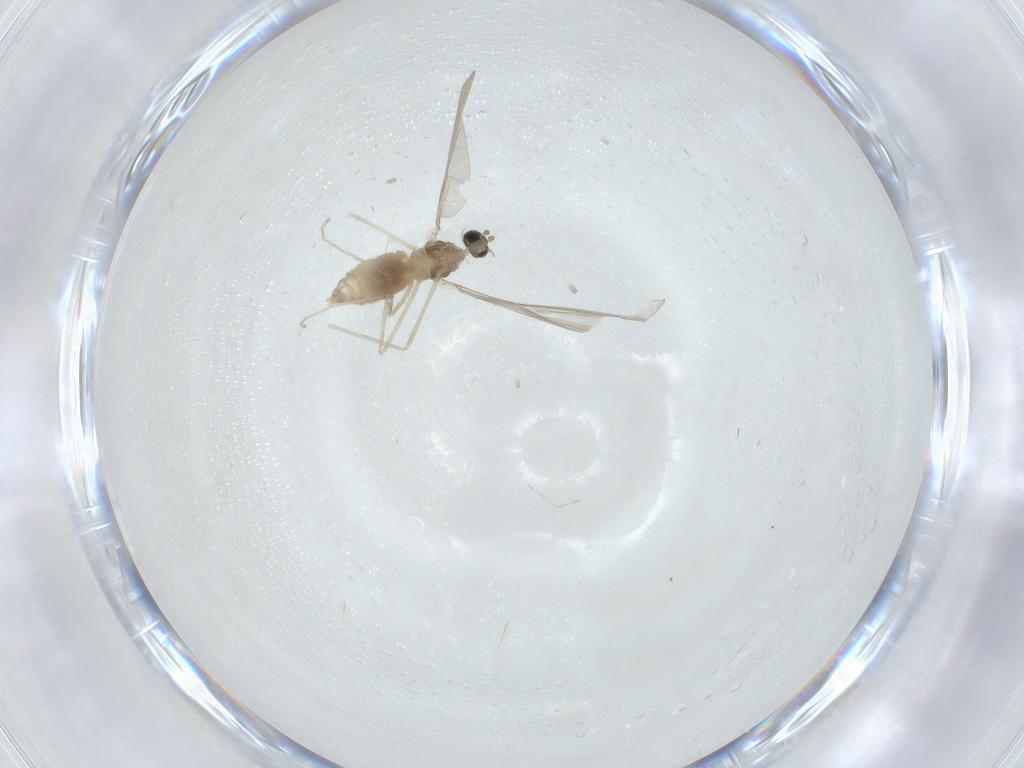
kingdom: Animalia
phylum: Arthropoda
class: Insecta
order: Diptera
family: Cecidomyiidae
